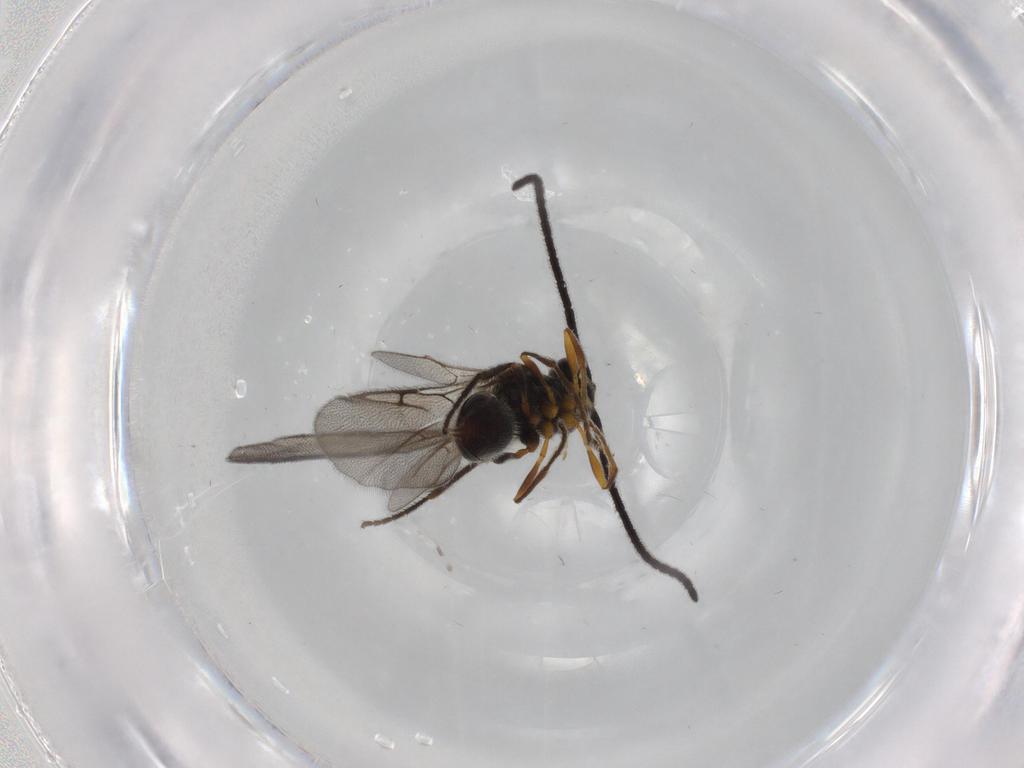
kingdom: Animalia
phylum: Arthropoda
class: Insecta
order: Hymenoptera
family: Diapriidae
